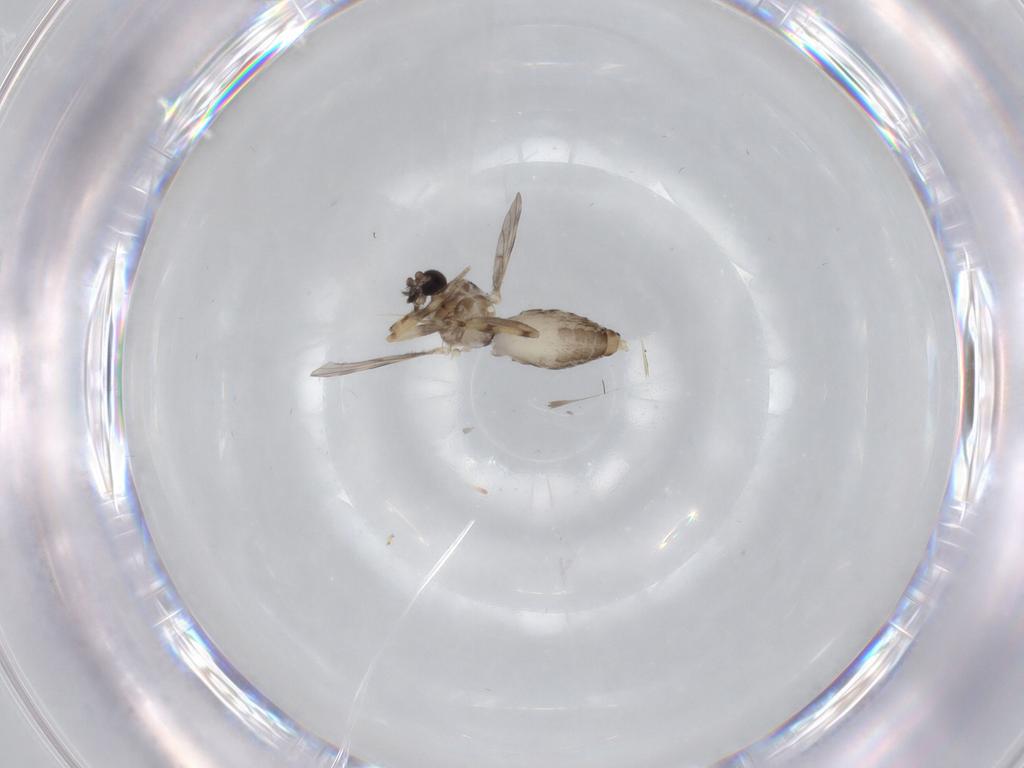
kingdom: Animalia
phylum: Arthropoda
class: Insecta
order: Diptera
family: Ceratopogonidae
